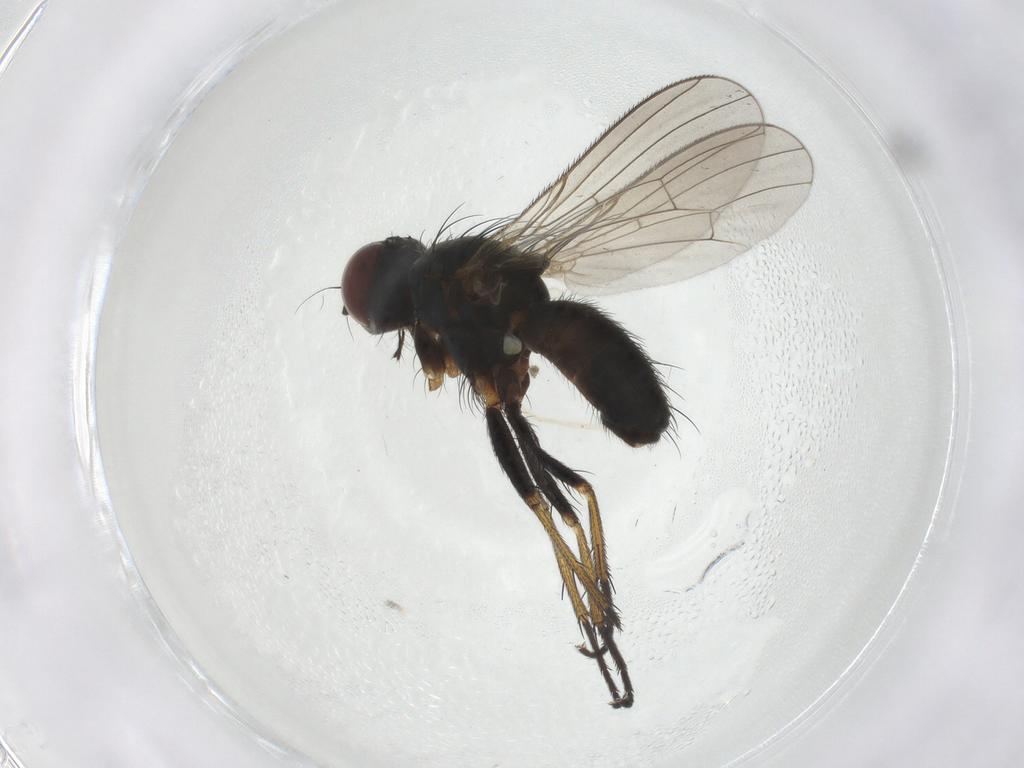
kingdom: Animalia
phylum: Arthropoda
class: Insecta
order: Diptera
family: Muscidae
